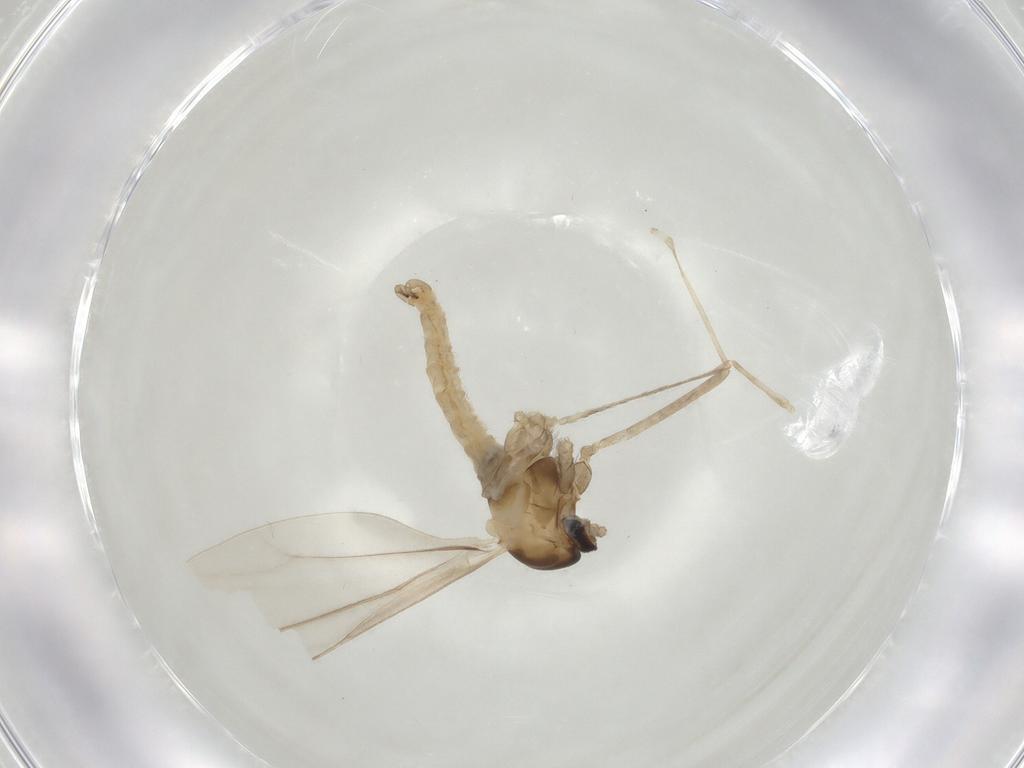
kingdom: Animalia
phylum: Arthropoda
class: Insecta
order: Diptera
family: Cecidomyiidae
